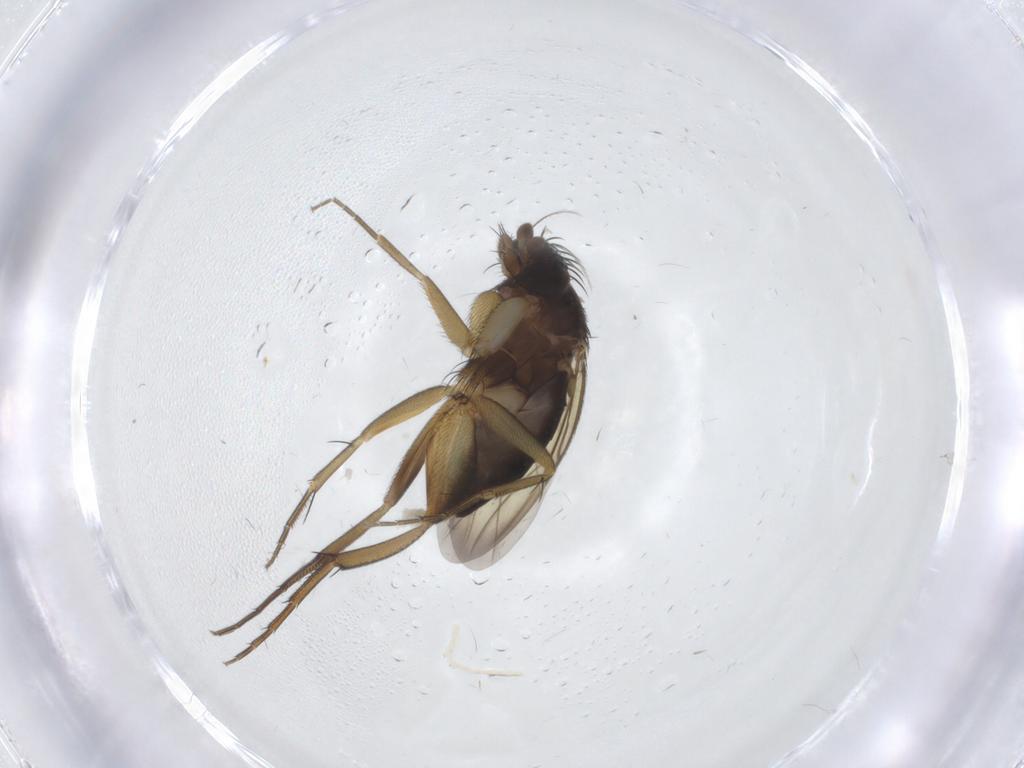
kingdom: Animalia
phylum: Arthropoda
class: Insecta
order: Diptera
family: Phoridae
